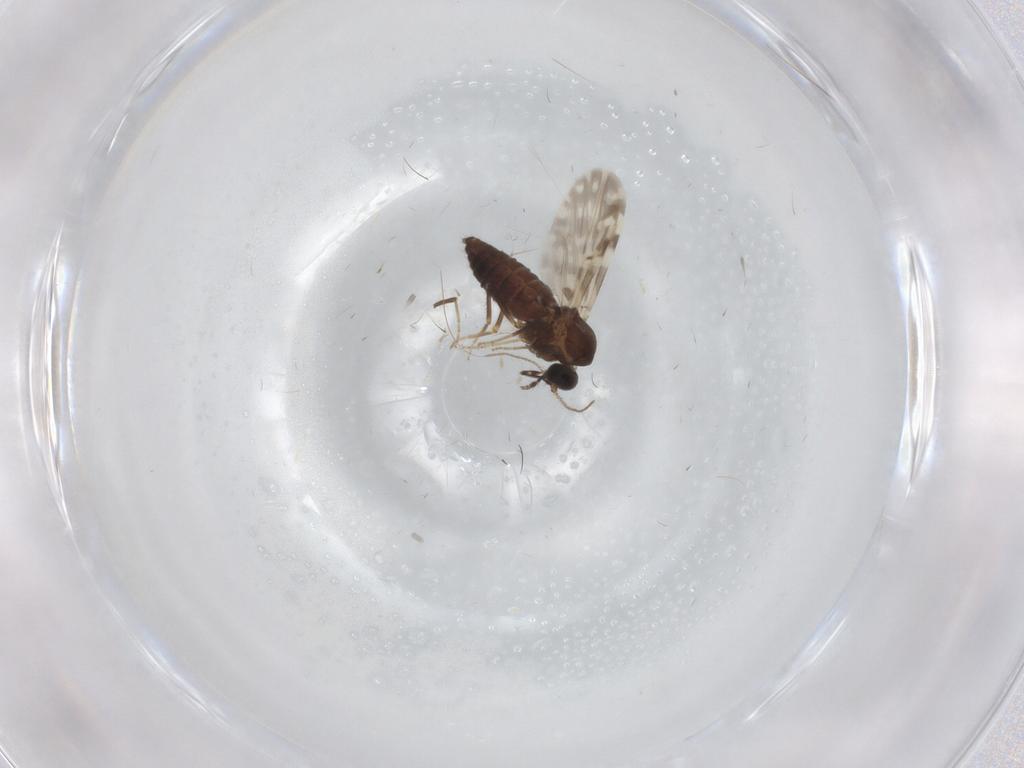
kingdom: Animalia
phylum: Arthropoda
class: Insecta
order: Diptera
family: Ceratopogonidae
